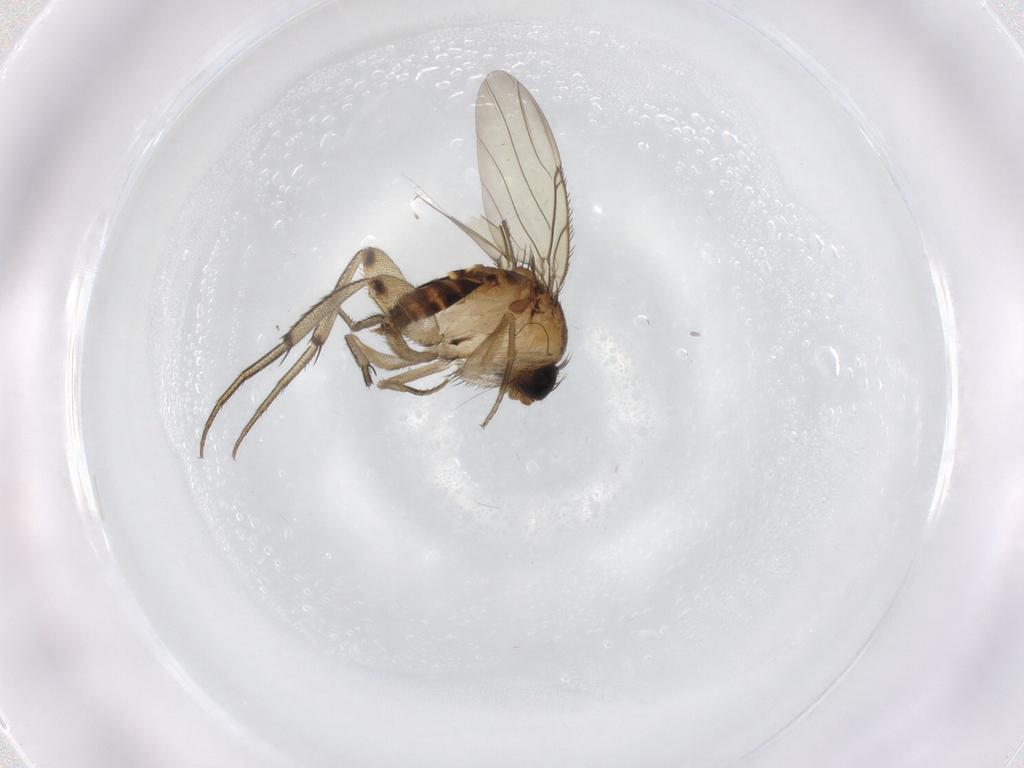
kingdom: Animalia
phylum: Arthropoda
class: Insecta
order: Diptera
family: Phoridae
